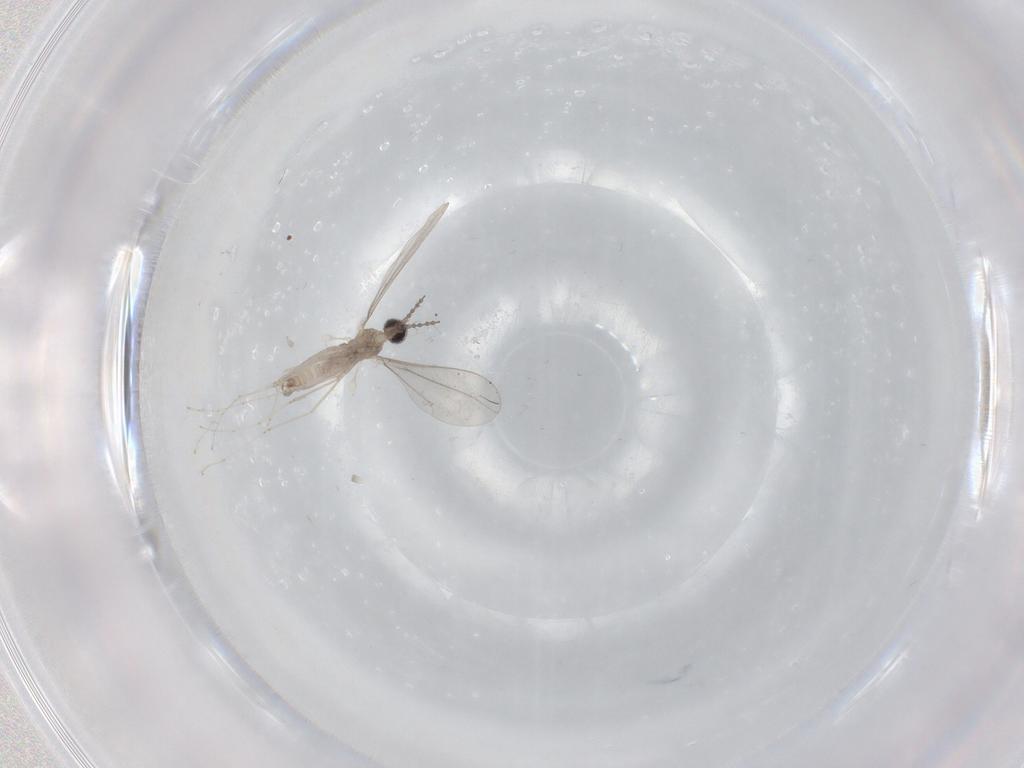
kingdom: Animalia
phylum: Arthropoda
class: Insecta
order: Diptera
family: Cecidomyiidae
